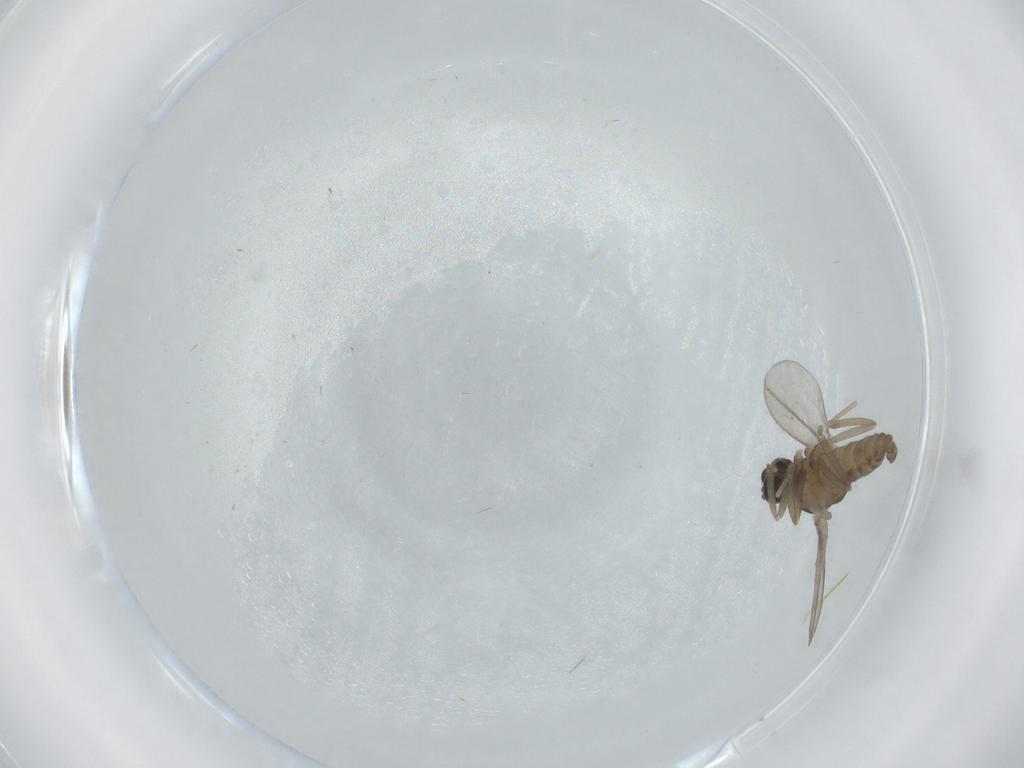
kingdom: Animalia
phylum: Arthropoda
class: Insecta
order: Diptera
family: Cecidomyiidae
